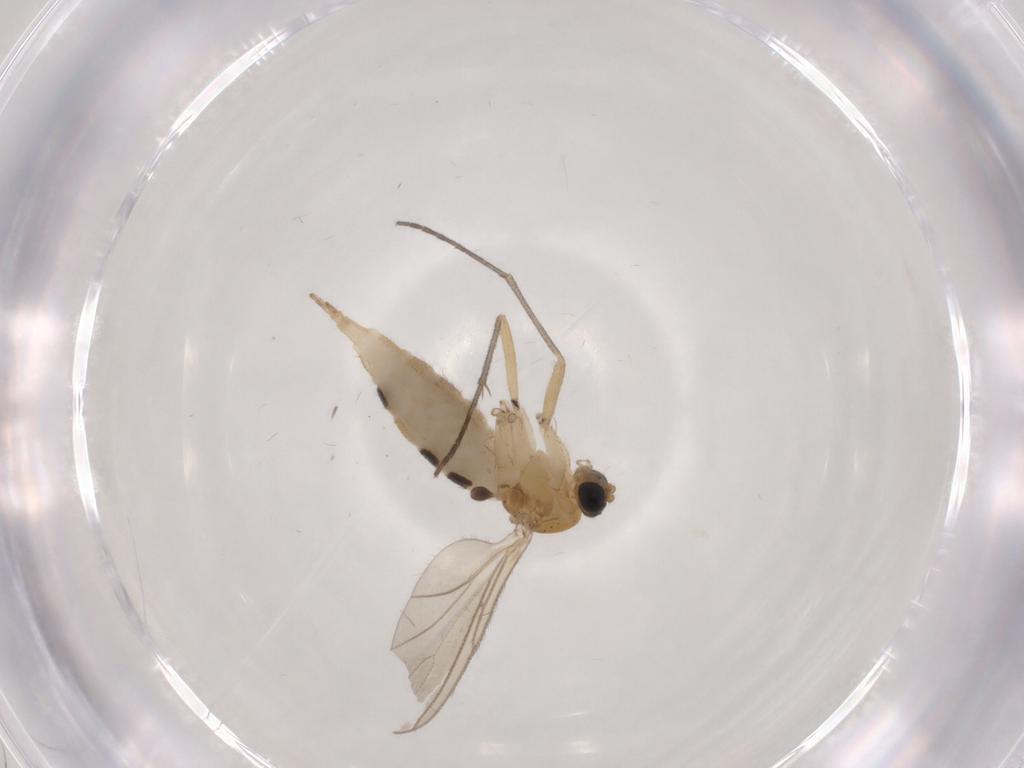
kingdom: Animalia
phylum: Arthropoda
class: Insecta
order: Diptera
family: Sciaridae
